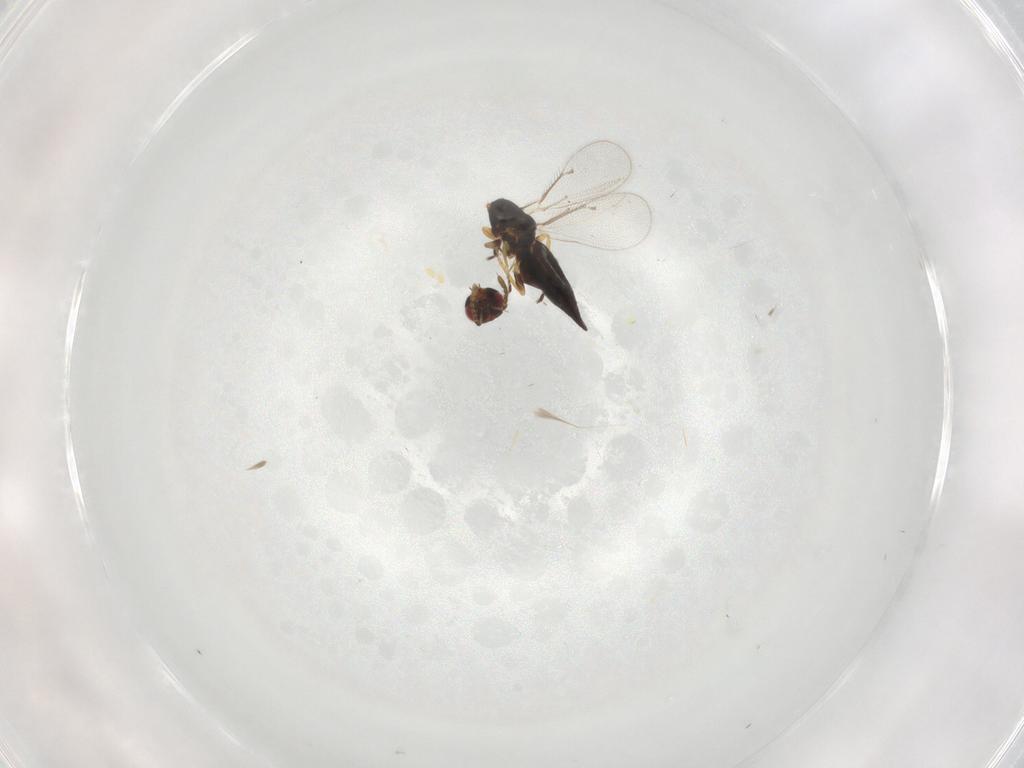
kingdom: Animalia
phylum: Arthropoda
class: Insecta
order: Hymenoptera
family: Eulophidae
